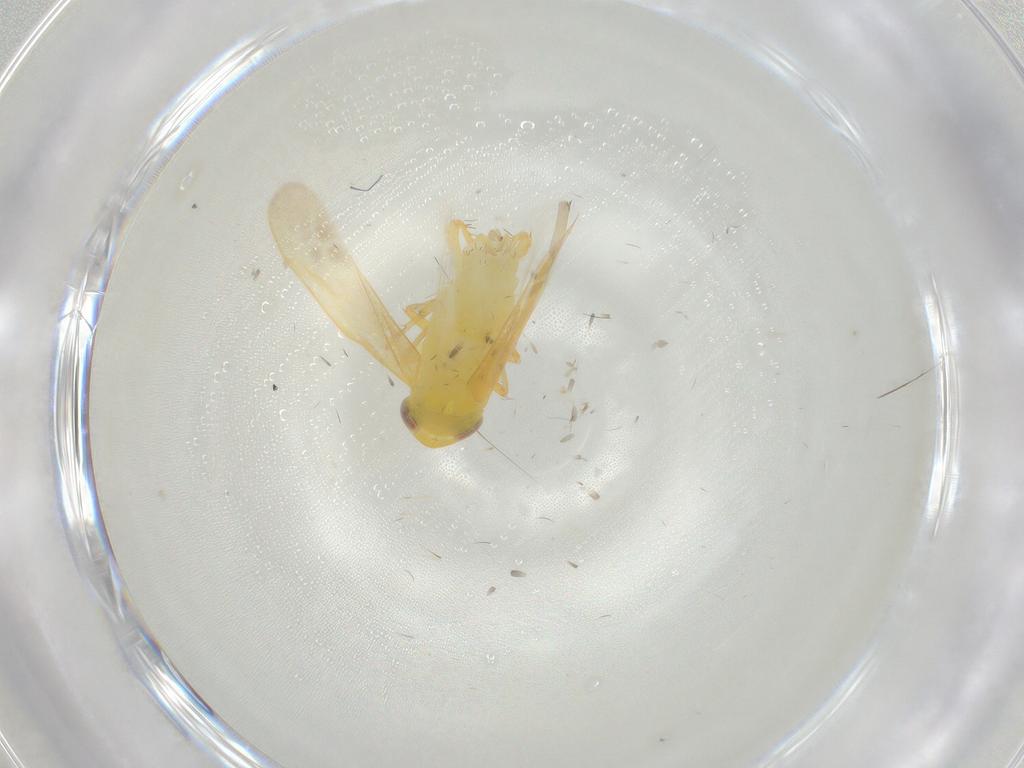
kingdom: Animalia
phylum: Arthropoda
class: Insecta
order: Hemiptera
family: Cicadellidae
